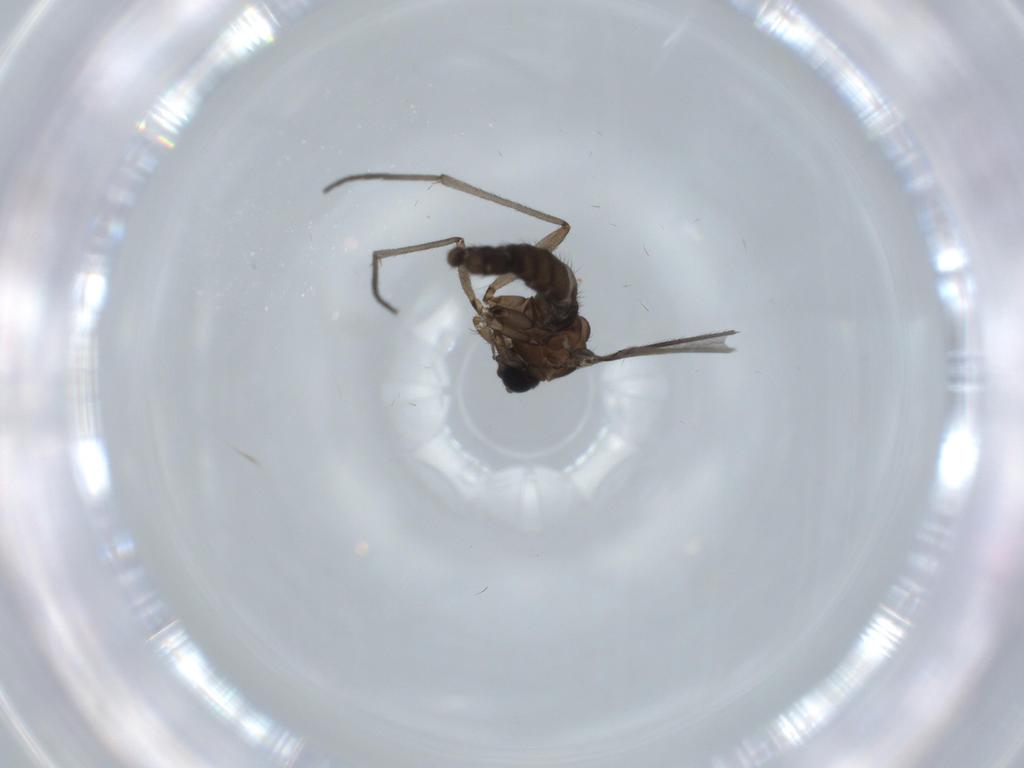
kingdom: Animalia
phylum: Arthropoda
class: Insecta
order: Diptera
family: Sciaridae
